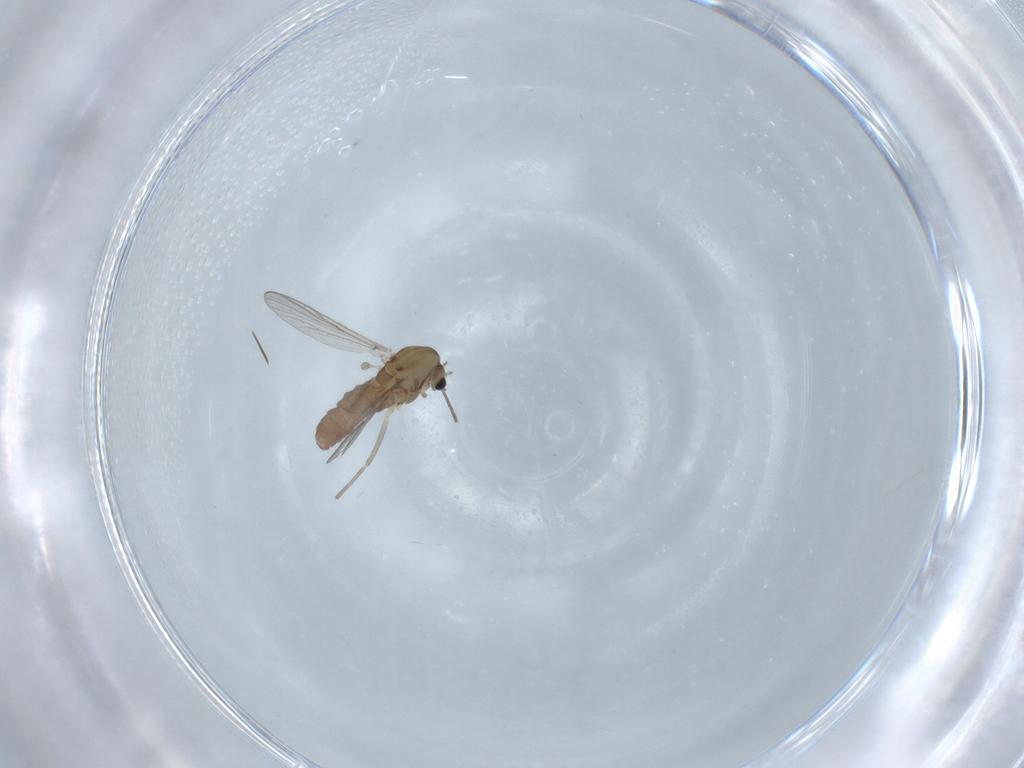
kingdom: Animalia
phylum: Arthropoda
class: Insecta
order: Diptera
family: Chironomidae
